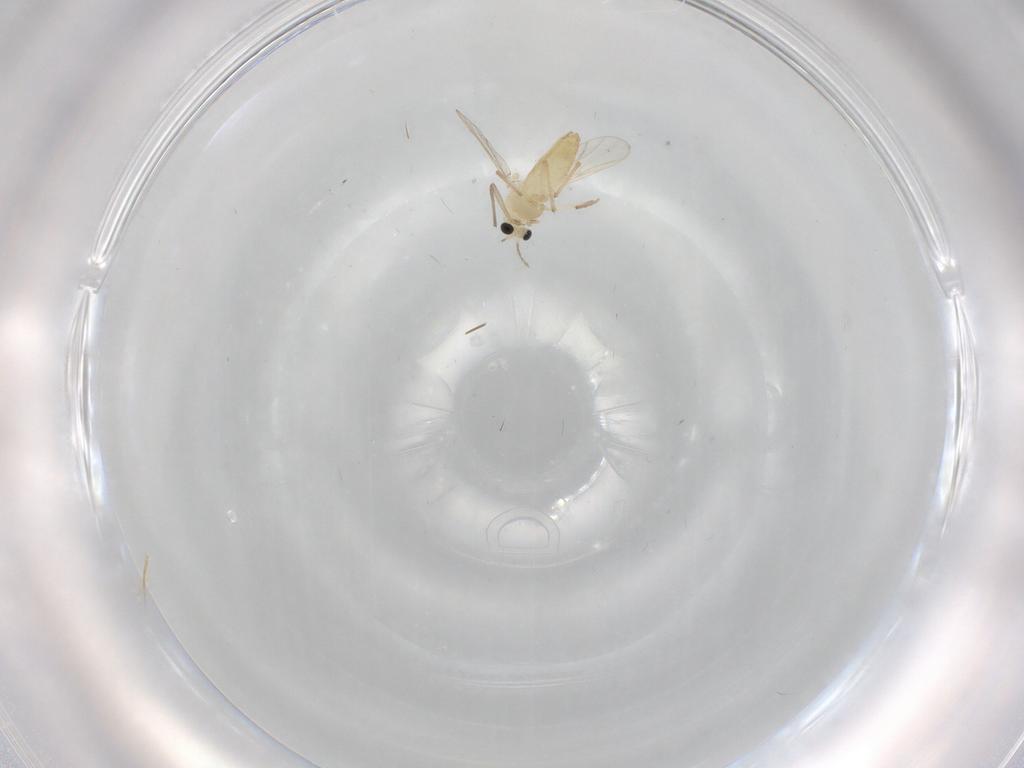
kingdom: Animalia
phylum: Arthropoda
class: Insecta
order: Diptera
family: Chironomidae
